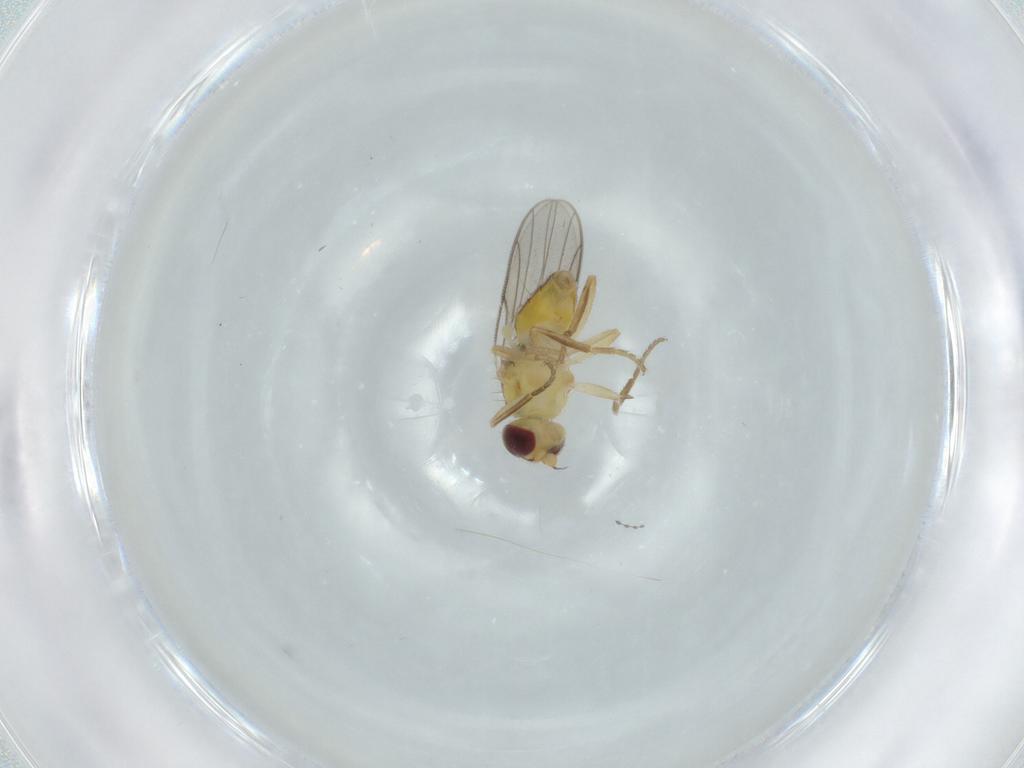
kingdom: Animalia
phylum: Arthropoda
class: Insecta
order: Diptera
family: Chloropidae
